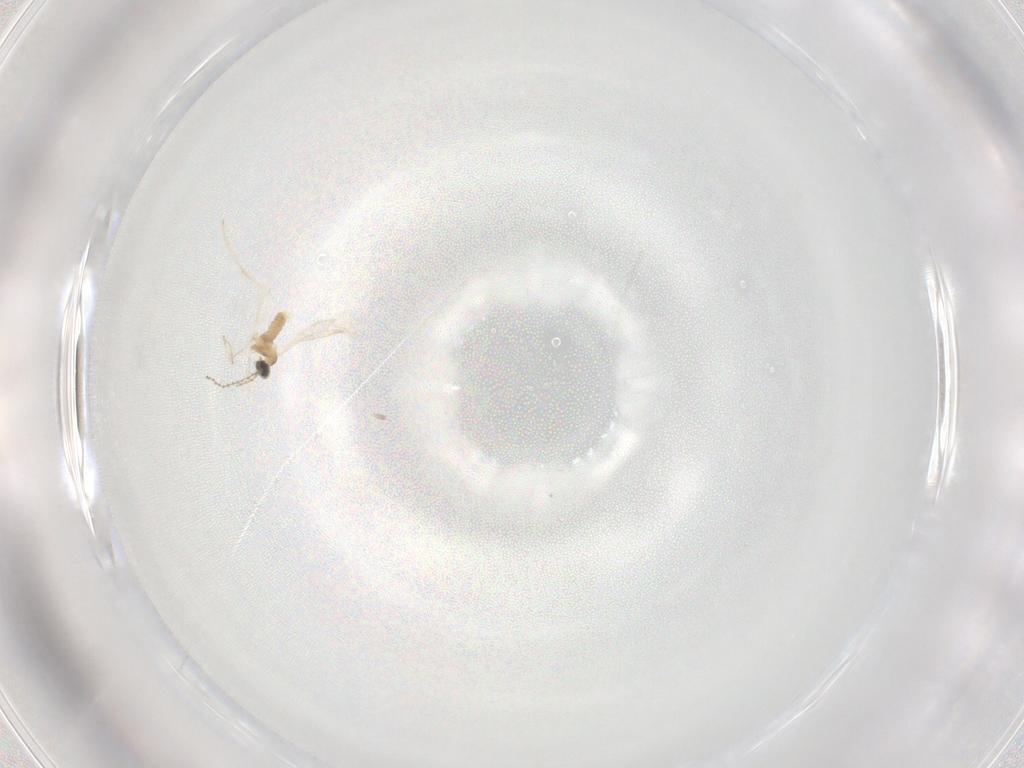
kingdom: Animalia
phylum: Arthropoda
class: Insecta
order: Diptera
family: Cecidomyiidae
